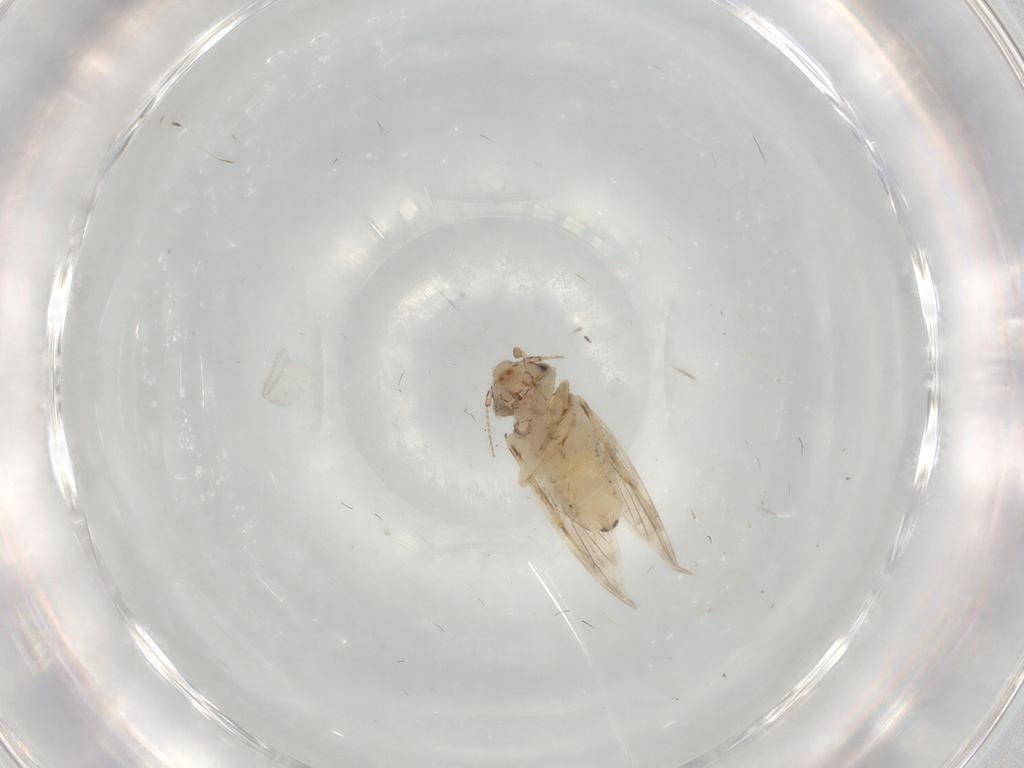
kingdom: Animalia
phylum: Arthropoda
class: Insecta
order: Psocodea
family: Lepidopsocidae
